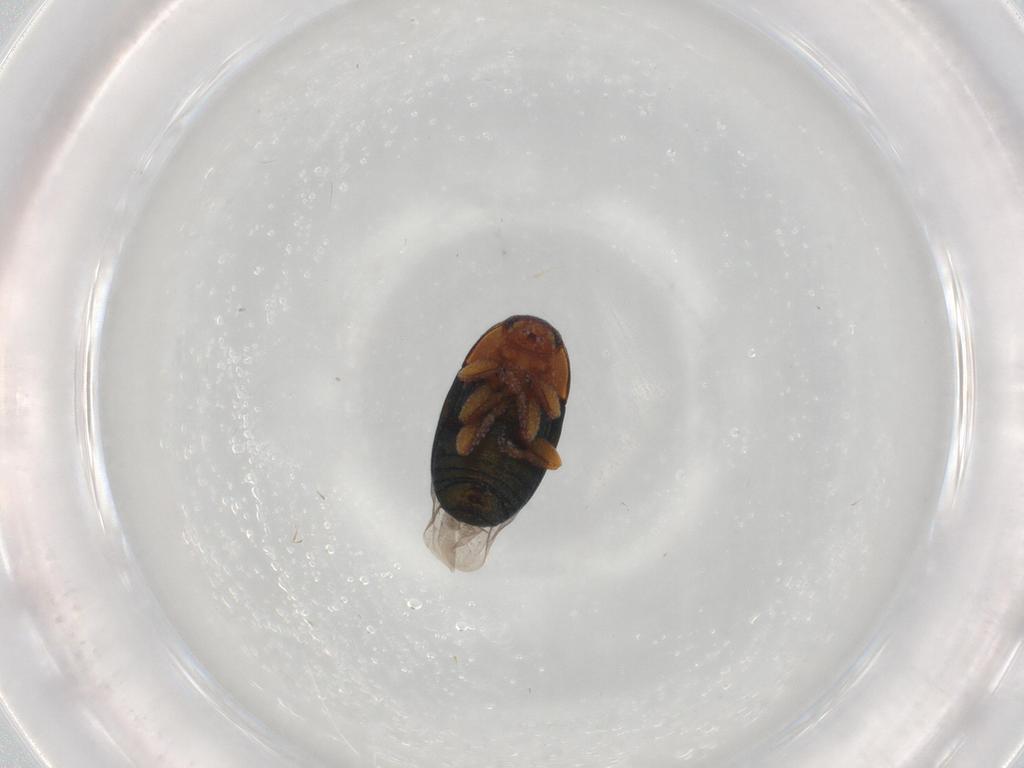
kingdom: Animalia
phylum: Arthropoda
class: Insecta
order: Coleoptera
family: Chrysomelidae
